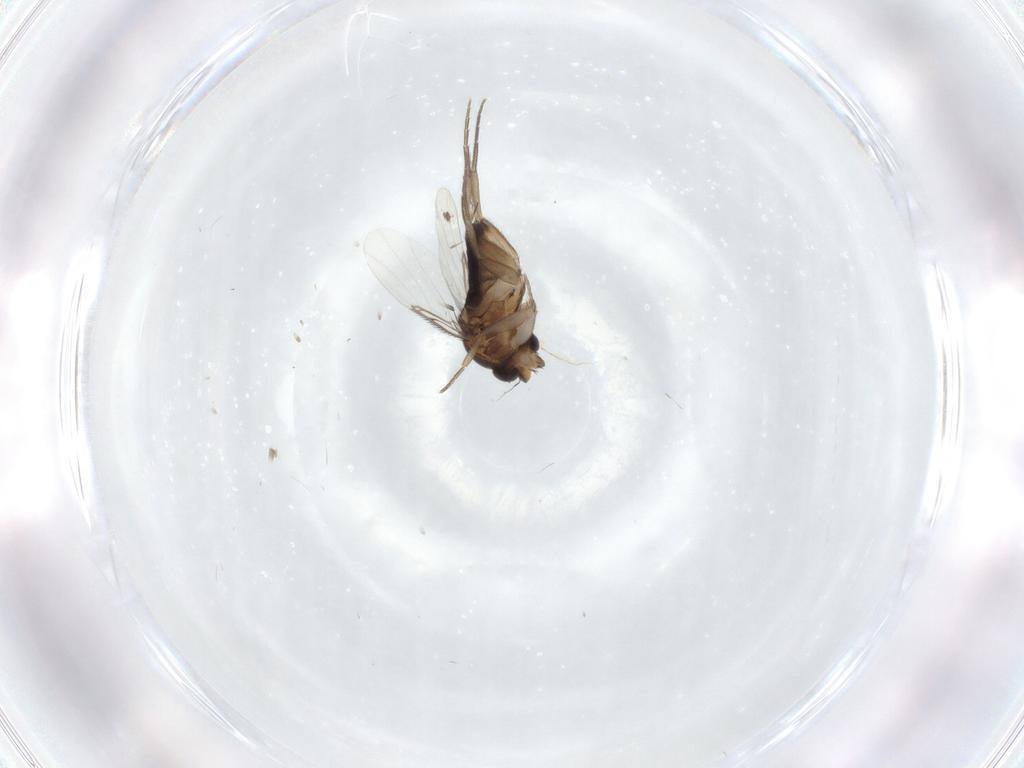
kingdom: Animalia
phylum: Arthropoda
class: Insecta
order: Diptera
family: Phoridae
